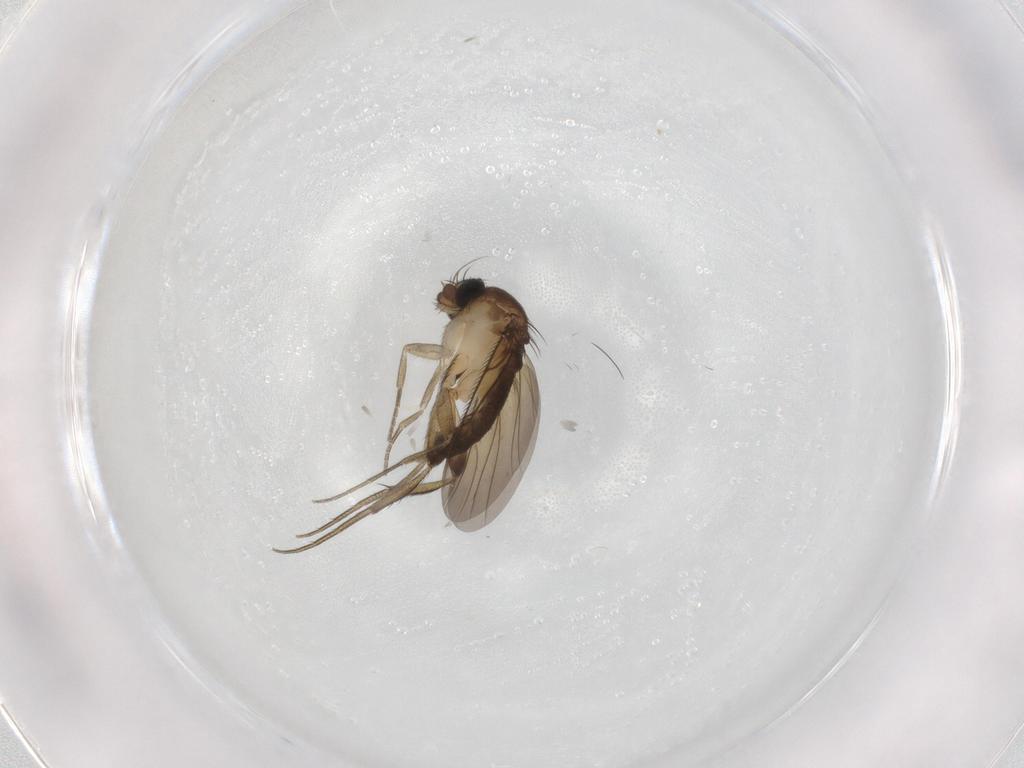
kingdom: Animalia
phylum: Arthropoda
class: Insecta
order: Diptera
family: Phoridae
